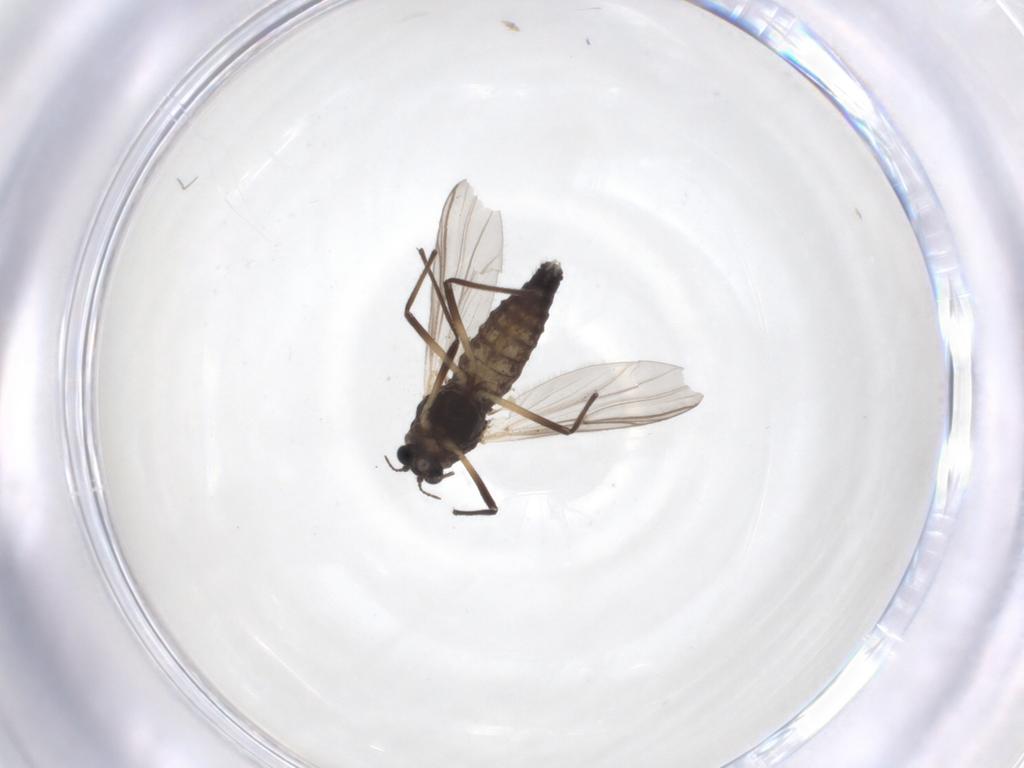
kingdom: Animalia
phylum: Arthropoda
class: Insecta
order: Diptera
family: Chironomidae
